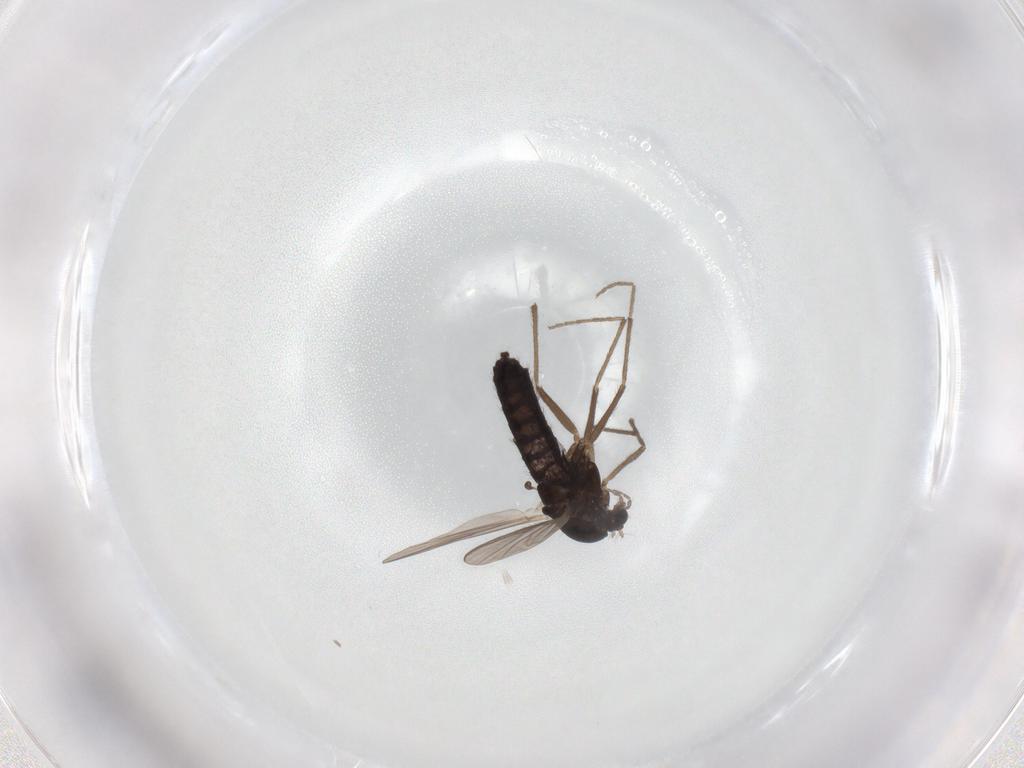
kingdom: Animalia
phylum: Arthropoda
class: Insecta
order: Diptera
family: Chironomidae
